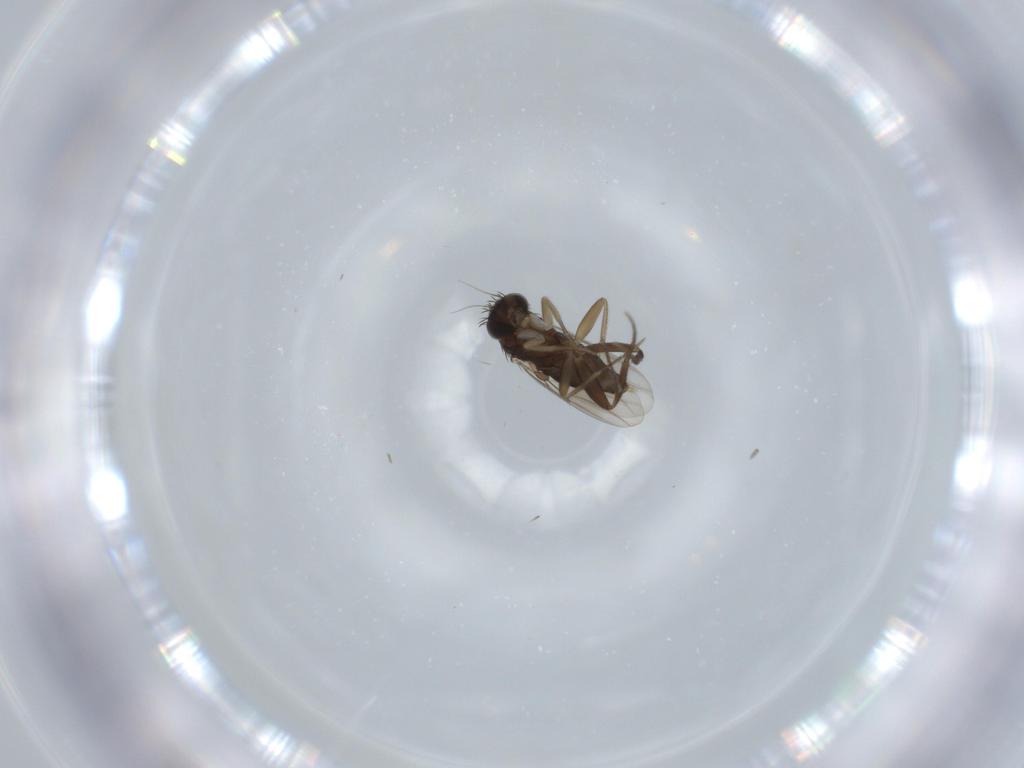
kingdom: Animalia
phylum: Arthropoda
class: Insecta
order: Diptera
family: Phoridae
